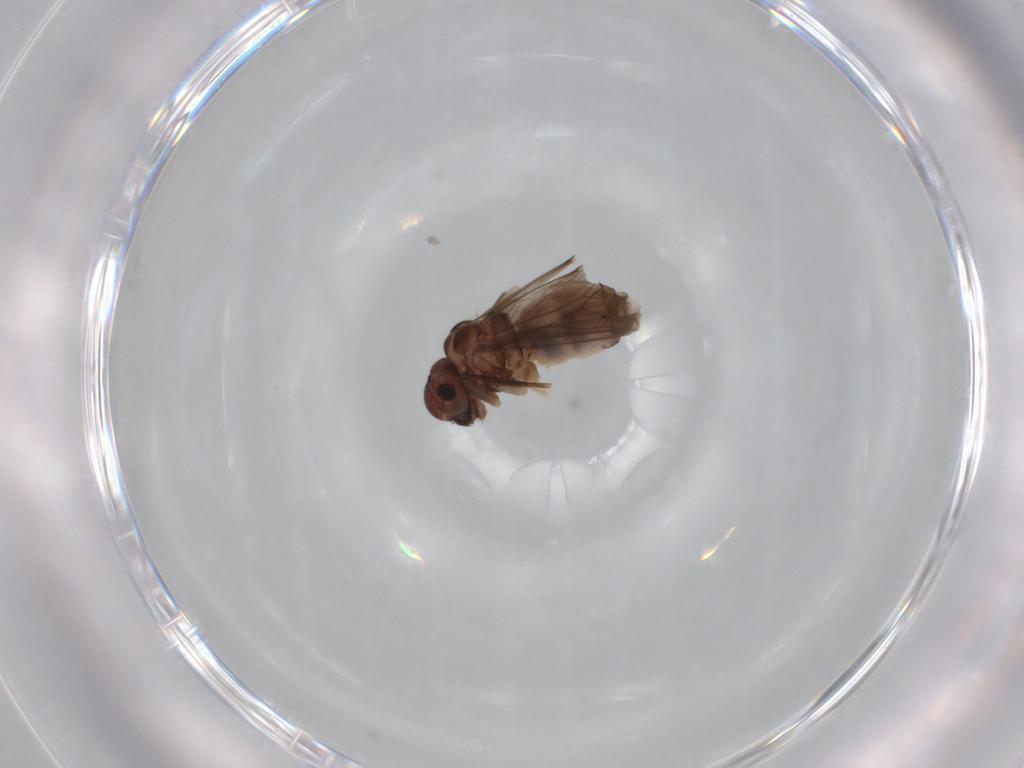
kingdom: Animalia
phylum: Arthropoda
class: Insecta
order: Psocodea
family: Peripsocidae
